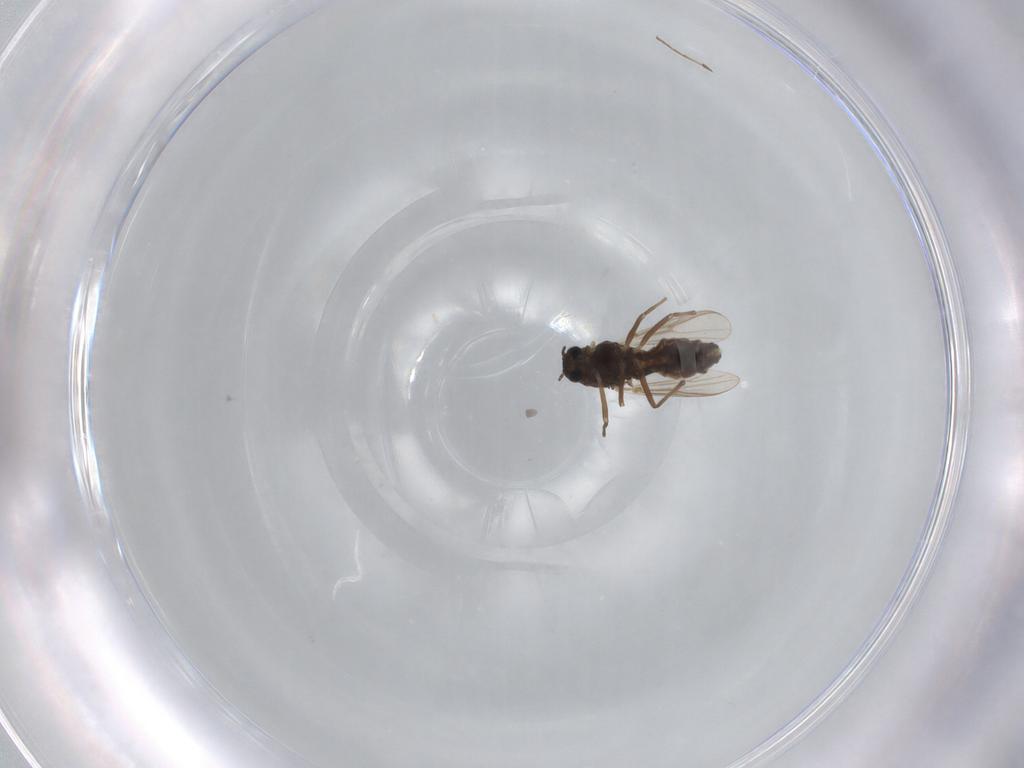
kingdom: Animalia
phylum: Arthropoda
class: Insecta
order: Diptera
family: Chironomidae
